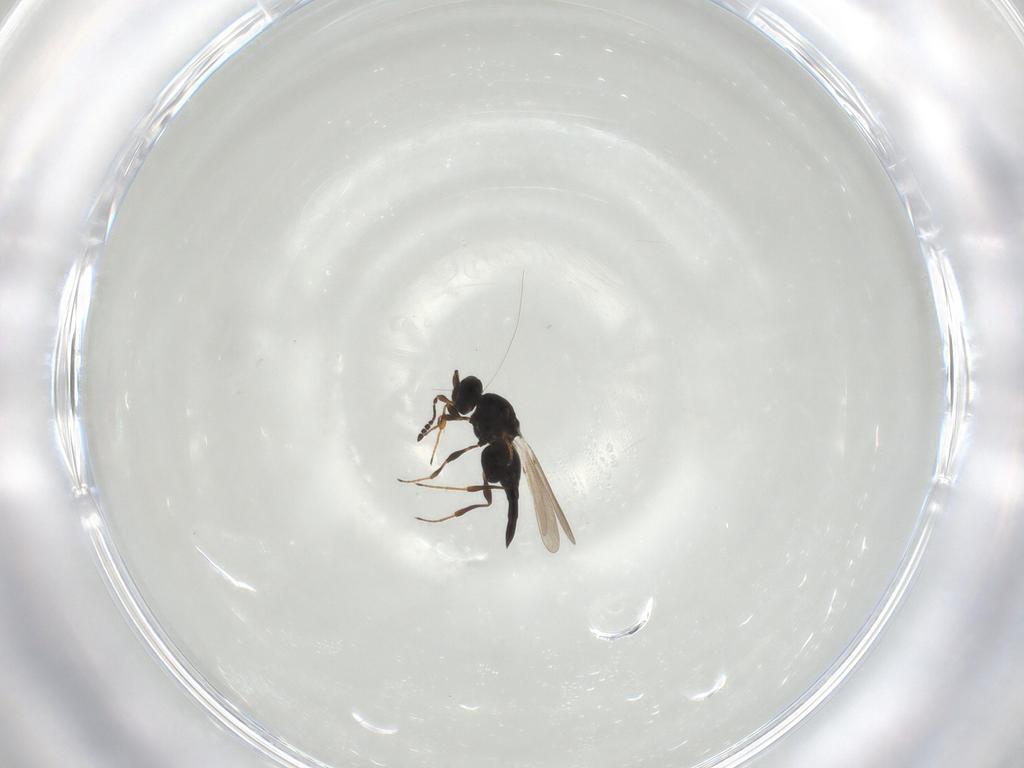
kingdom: Animalia
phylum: Arthropoda
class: Insecta
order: Hymenoptera
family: Platygastridae
